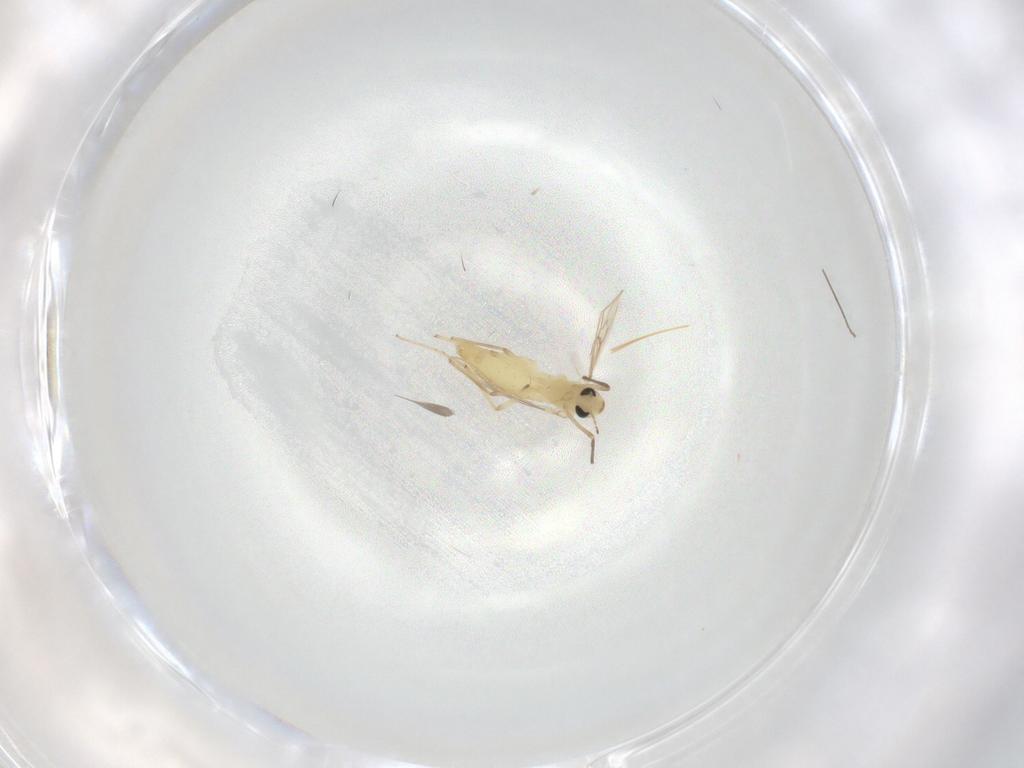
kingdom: Animalia
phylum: Arthropoda
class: Insecta
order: Diptera
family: Chironomidae
